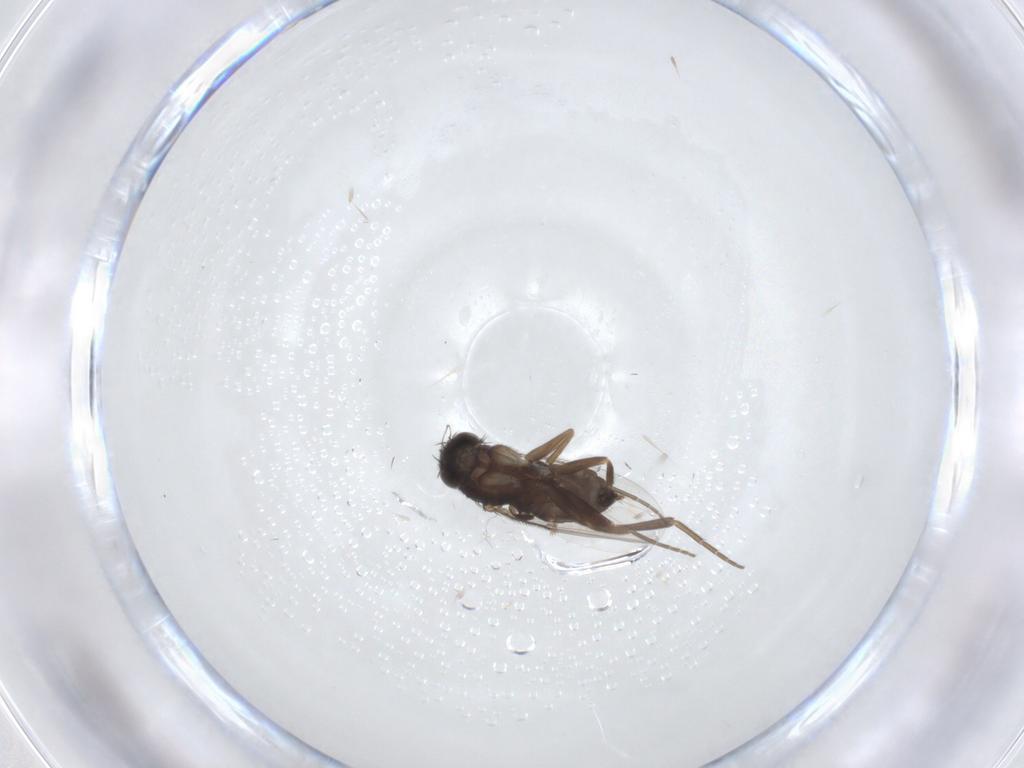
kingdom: Animalia
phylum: Arthropoda
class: Insecta
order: Diptera
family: Phoridae
